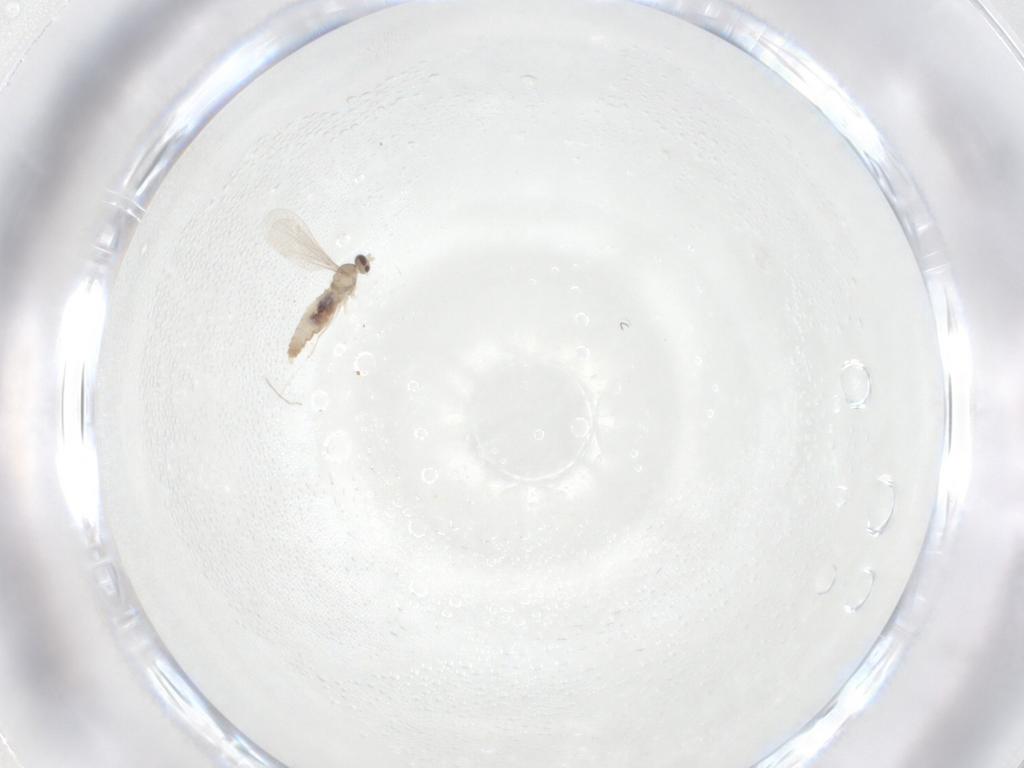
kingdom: Animalia
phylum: Arthropoda
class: Insecta
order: Diptera
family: Cecidomyiidae
